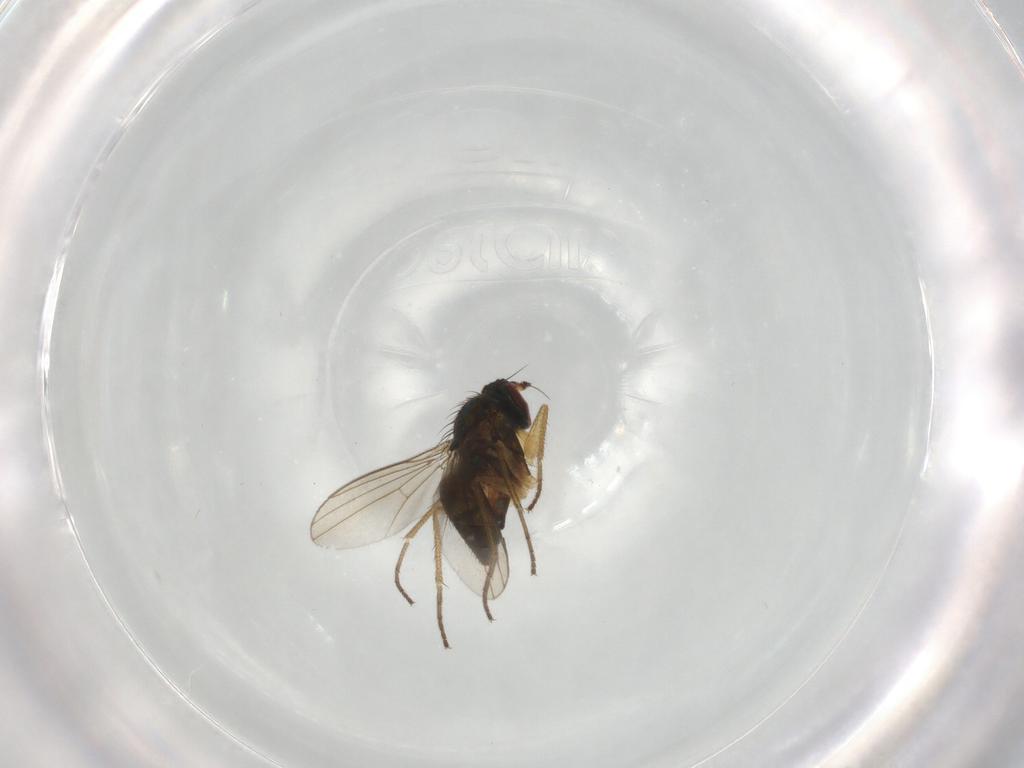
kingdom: Animalia
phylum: Arthropoda
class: Insecta
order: Diptera
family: Dolichopodidae
